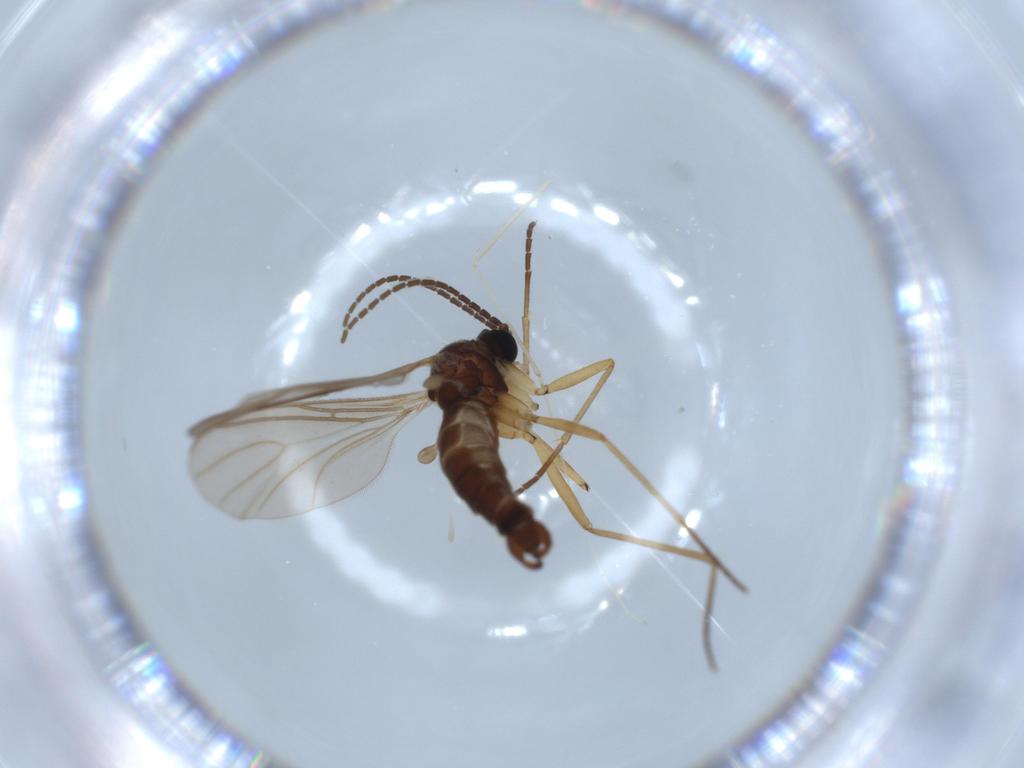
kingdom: Animalia
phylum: Arthropoda
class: Insecta
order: Diptera
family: Sciaridae
